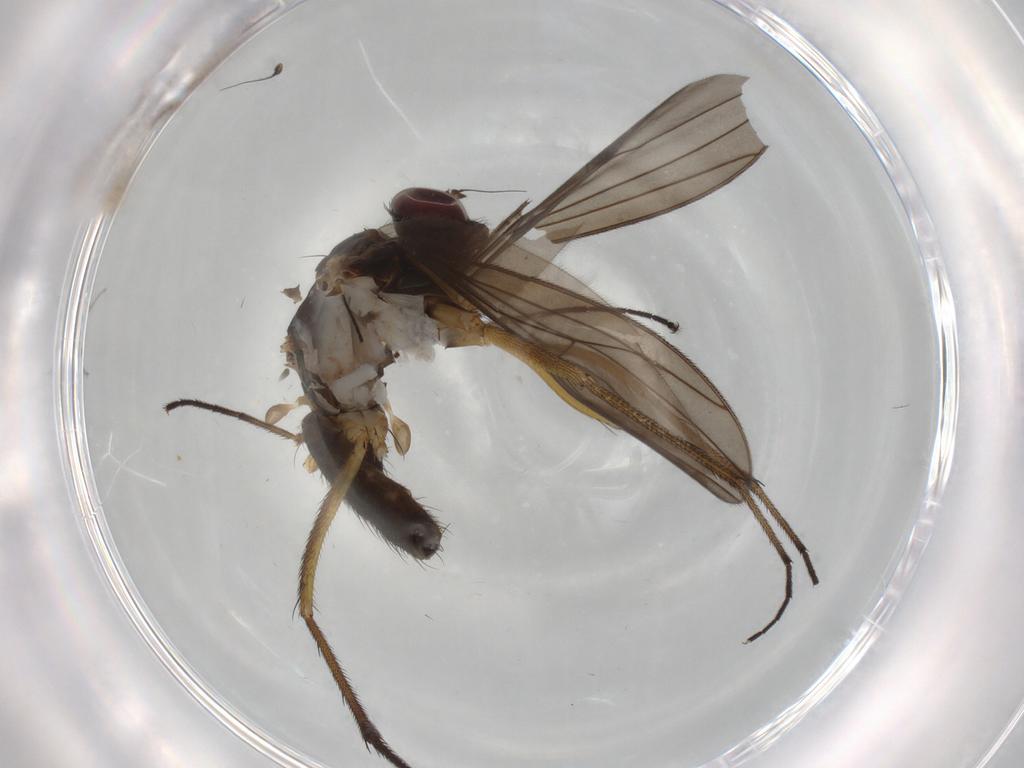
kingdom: Animalia
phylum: Arthropoda
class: Insecta
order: Diptera
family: Dolichopodidae
